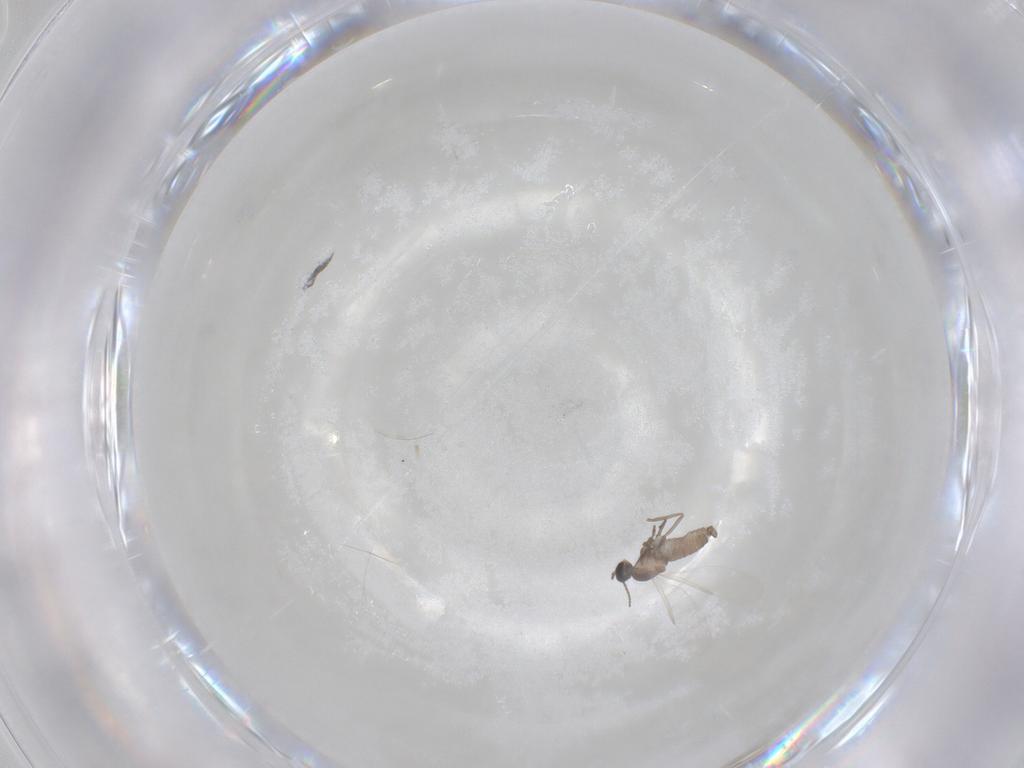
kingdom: Animalia
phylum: Arthropoda
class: Insecta
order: Diptera
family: Cecidomyiidae
